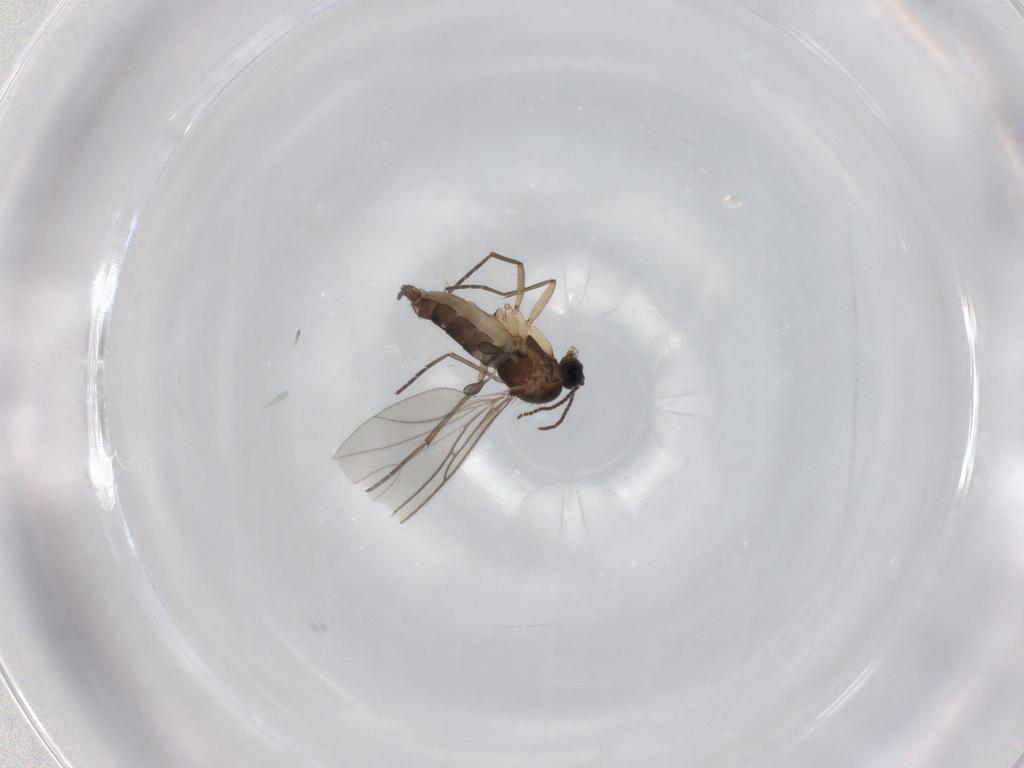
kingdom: Animalia
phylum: Arthropoda
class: Insecta
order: Diptera
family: Sciaridae
